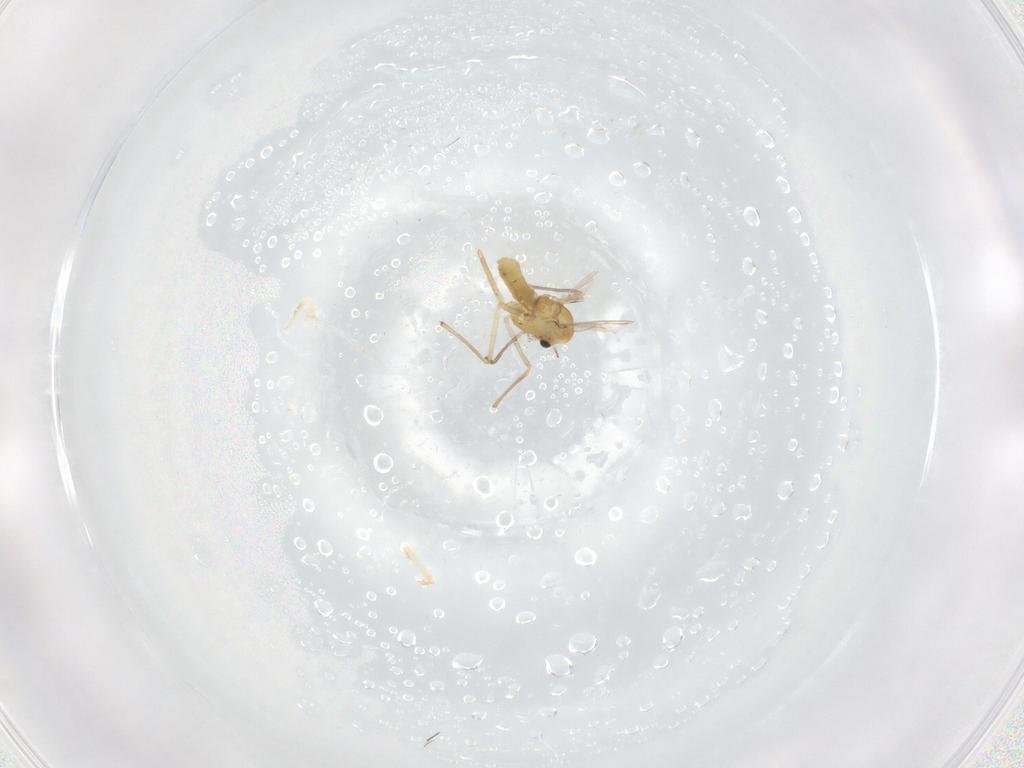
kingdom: Animalia
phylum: Arthropoda
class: Insecta
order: Diptera
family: Chironomidae
